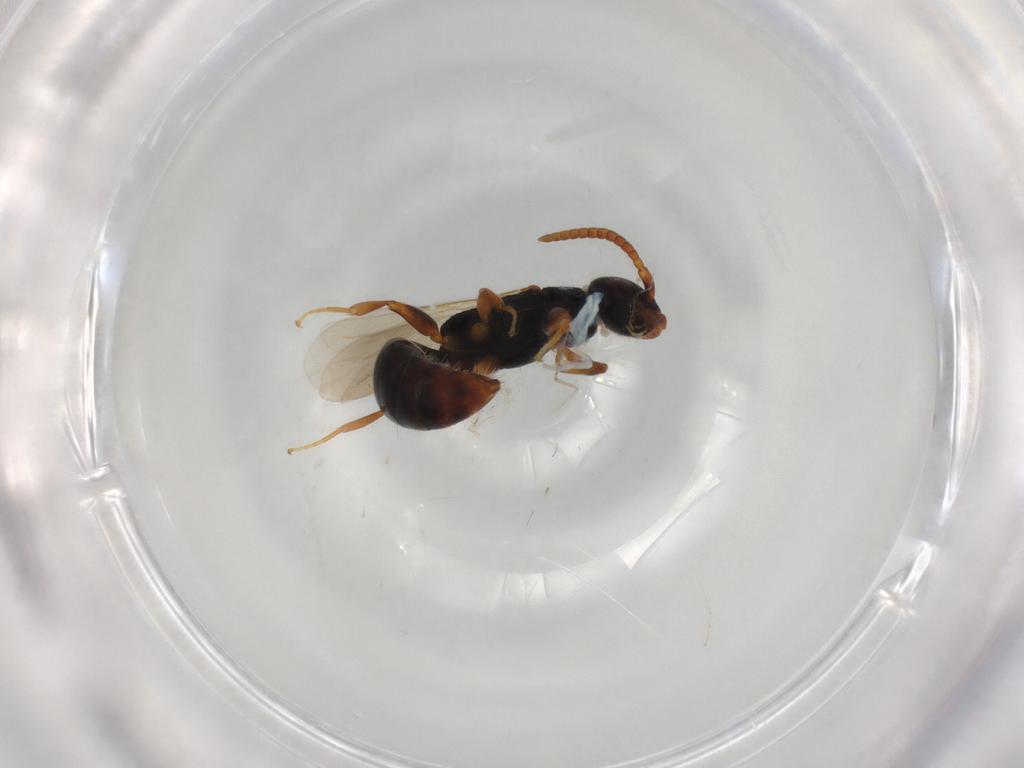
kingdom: Animalia
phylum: Arthropoda
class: Insecta
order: Hymenoptera
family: Bethylidae
